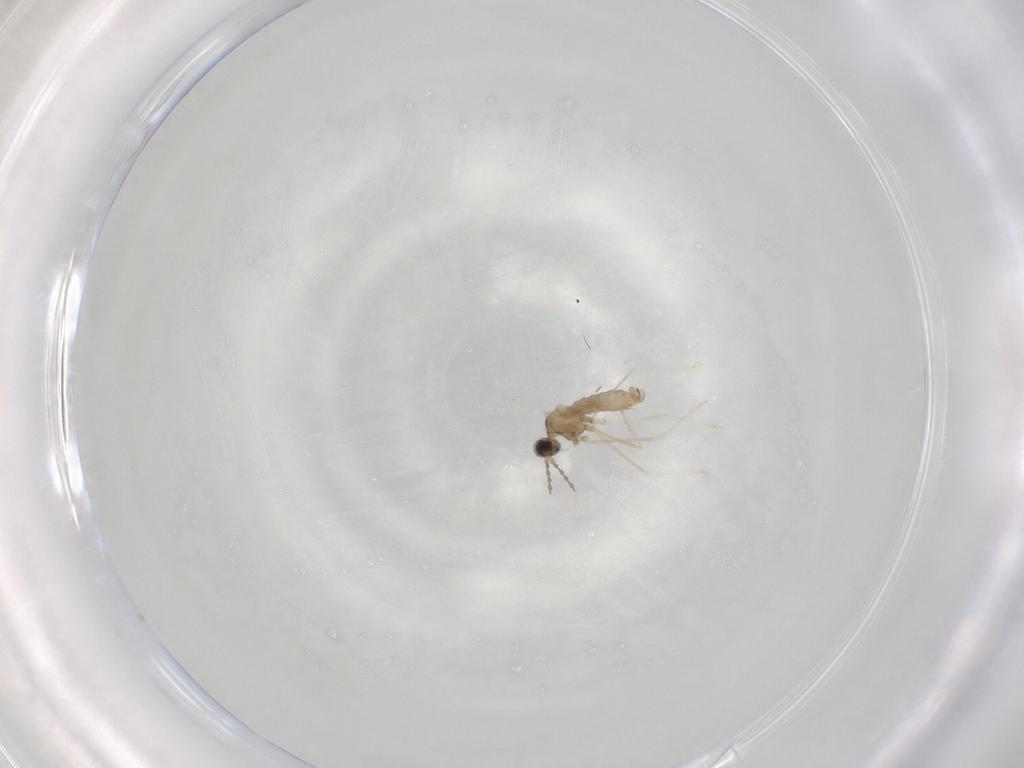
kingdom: Animalia
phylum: Arthropoda
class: Insecta
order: Diptera
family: Cecidomyiidae
